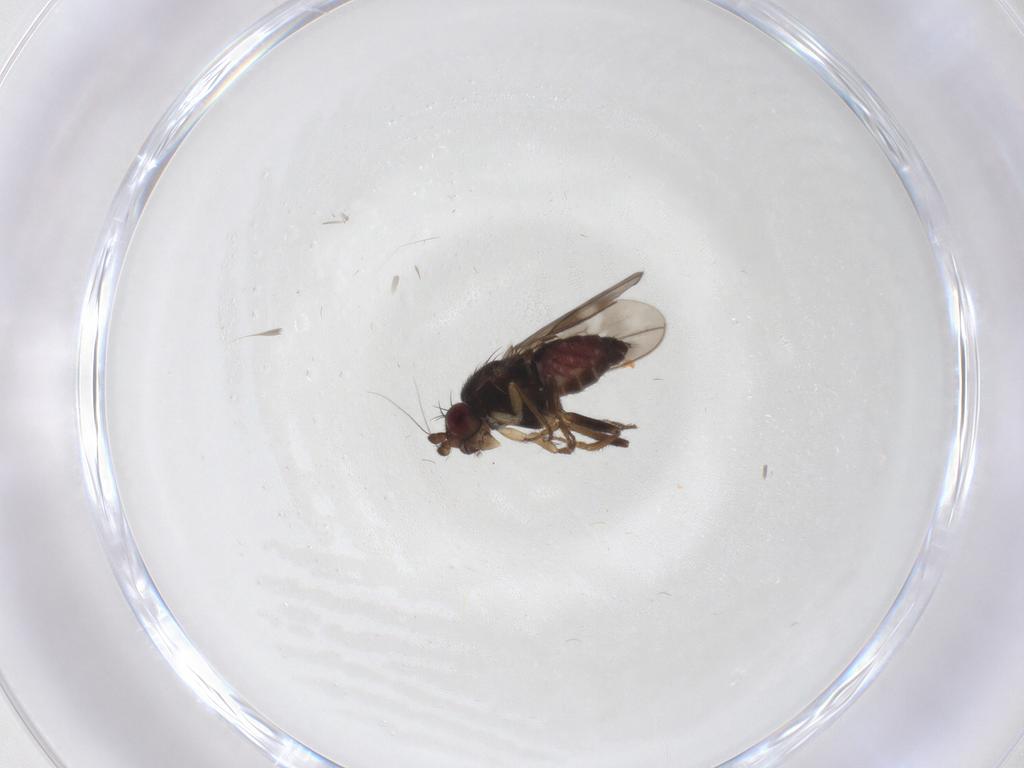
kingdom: Animalia
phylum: Arthropoda
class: Insecta
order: Diptera
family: Sphaeroceridae
